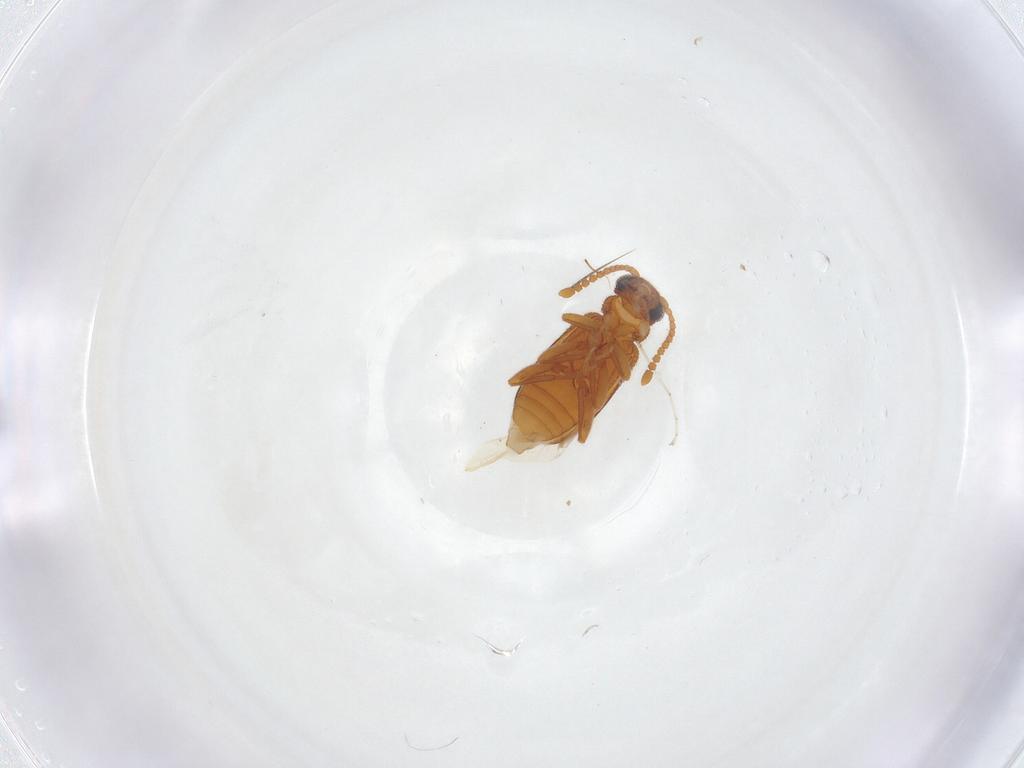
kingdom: Animalia
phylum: Arthropoda
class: Insecta
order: Coleoptera
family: Aderidae
